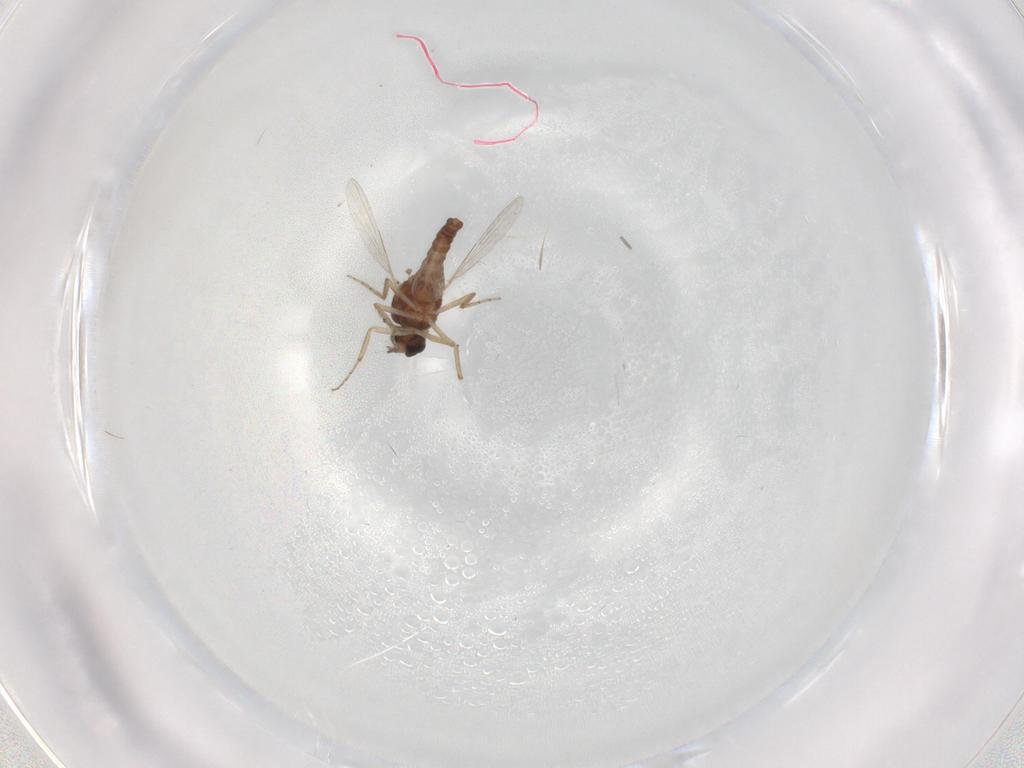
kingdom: Animalia
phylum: Arthropoda
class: Insecta
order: Diptera
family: Ceratopogonidae
